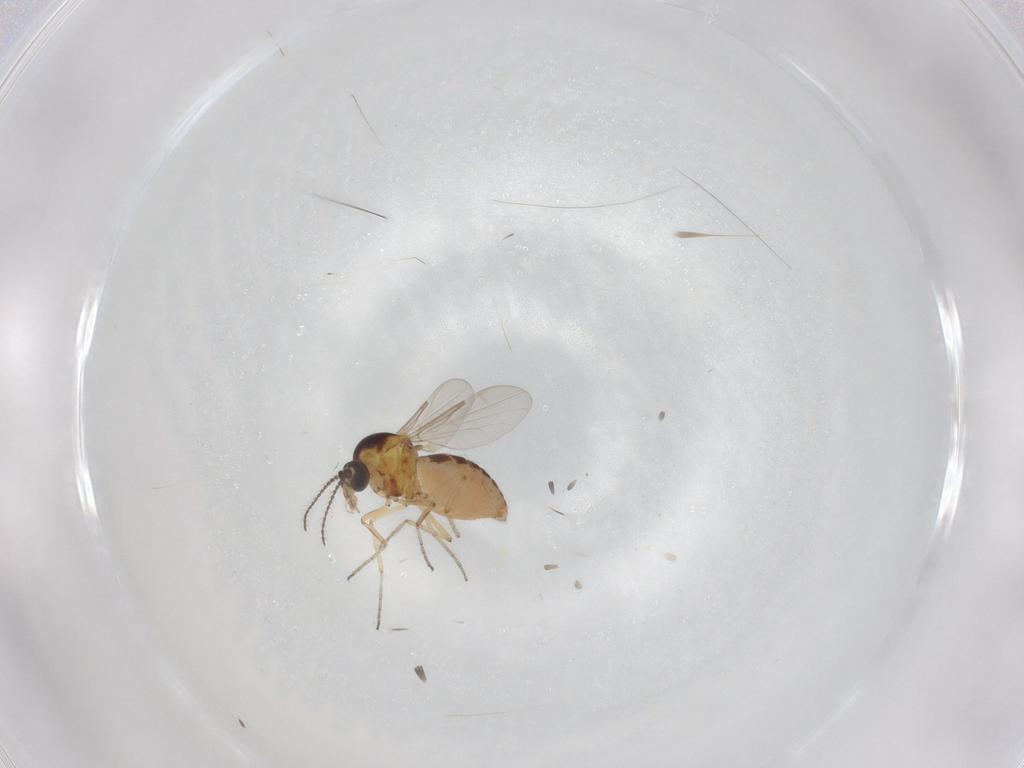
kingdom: Animalia
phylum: Arthropoda
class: Insecta
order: Diptera
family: Ceratopogonidae
